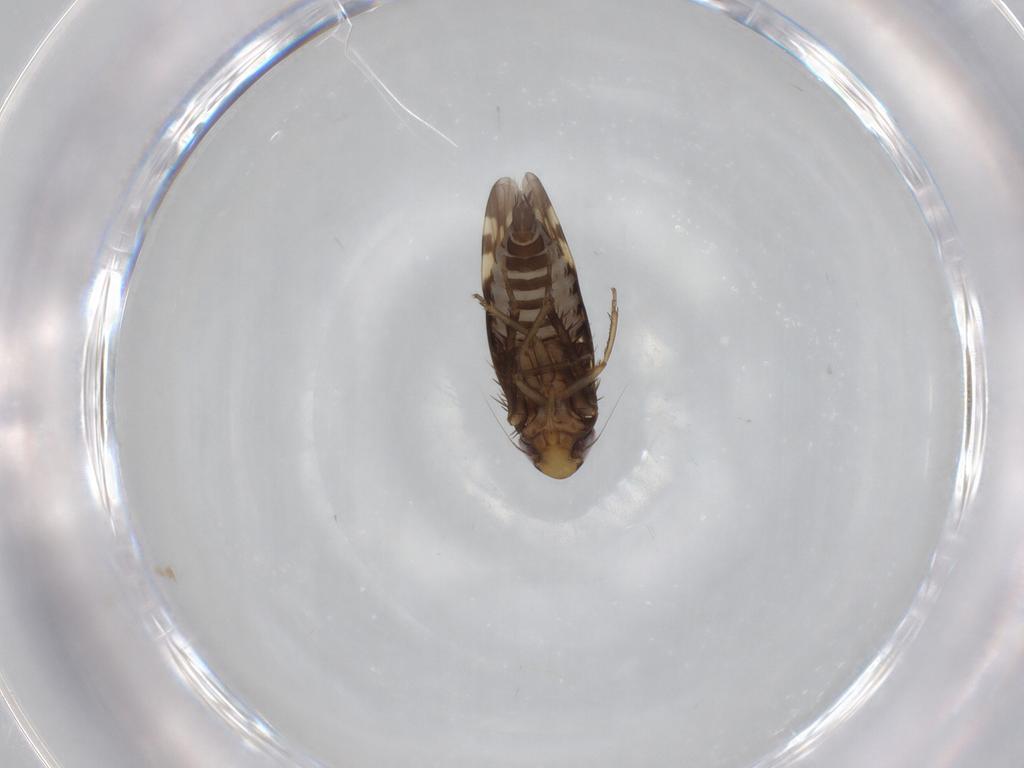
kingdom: Animalia
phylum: Arthropoda
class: Insecta
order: Hemiptera
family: Cicadellidae
